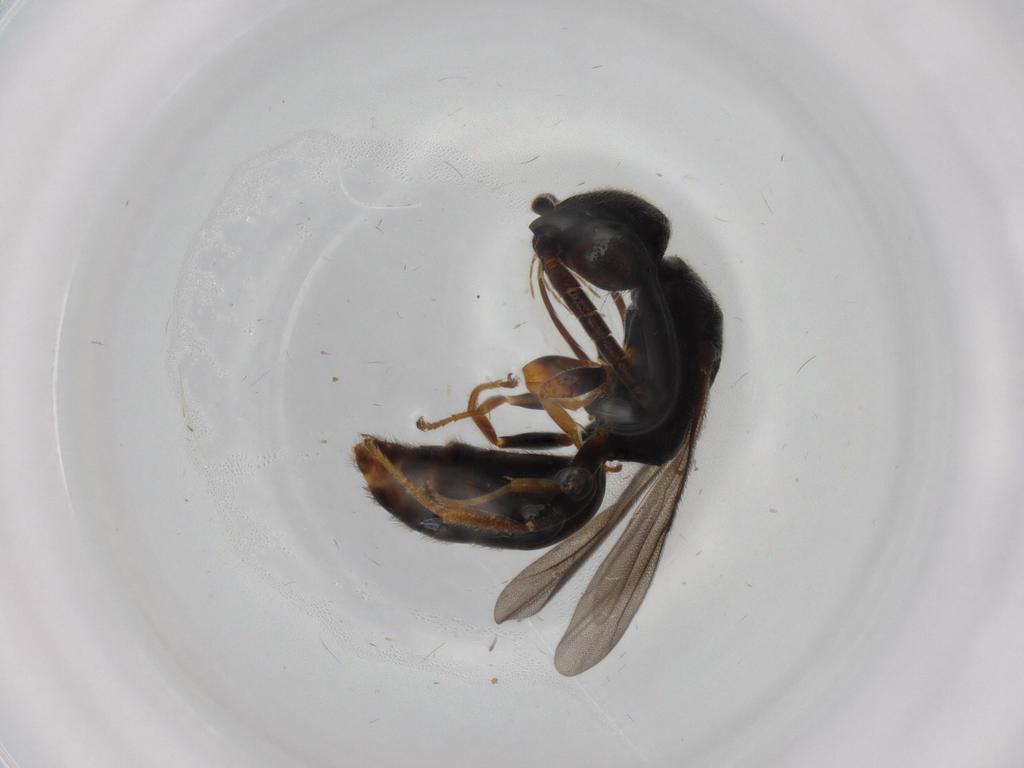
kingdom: Animalia
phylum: Arthropoda
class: Insecta
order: Hymenoptera
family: Bethylidae
